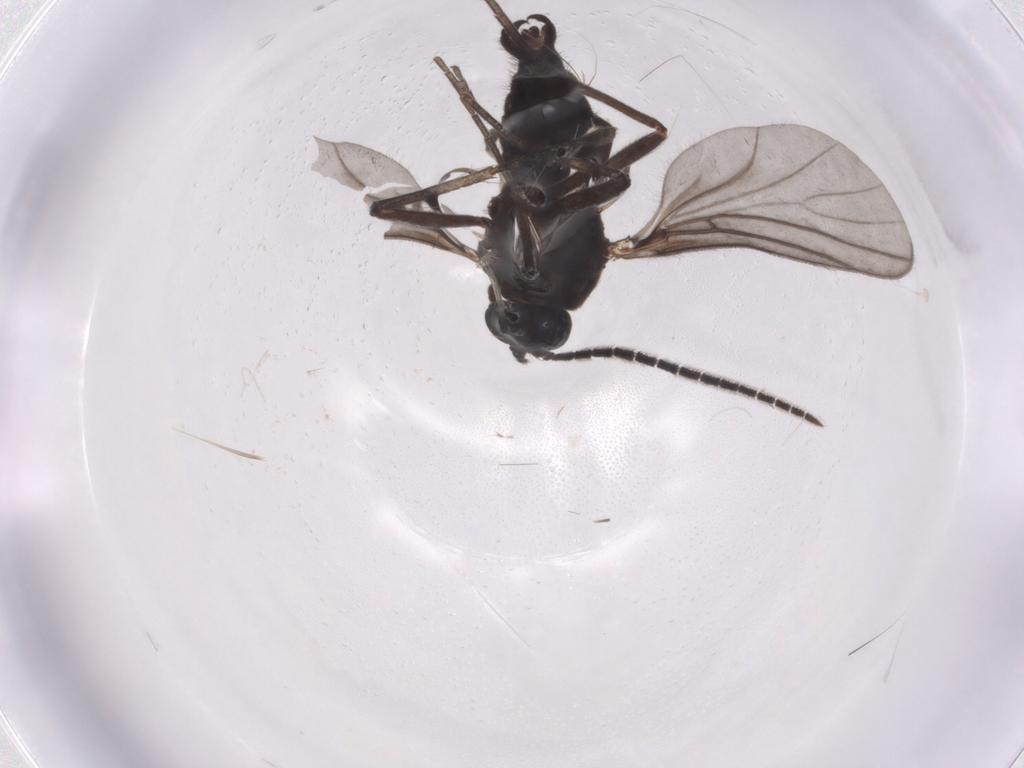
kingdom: Animalia
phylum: Arthropoda
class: Insecta
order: Diptera
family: Sciaridae
